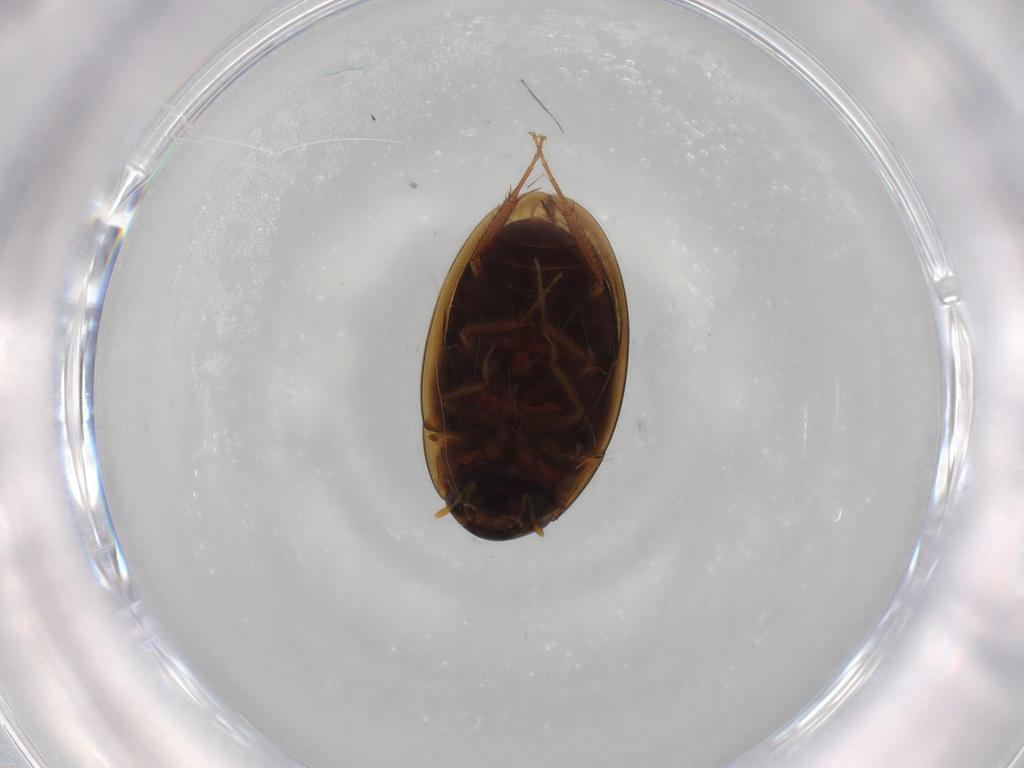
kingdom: Animalia
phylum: Arthropoda
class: Insecta
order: Coleoptera
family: Hydrophilidae
